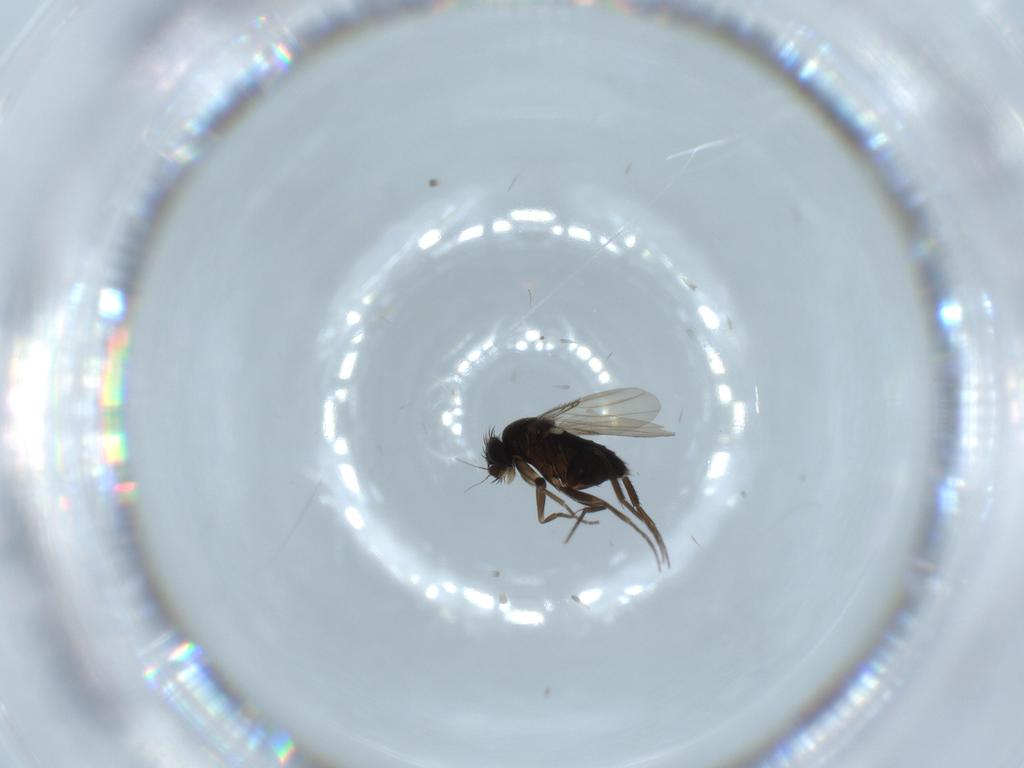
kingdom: Animalia
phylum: Arthropoda
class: Insecta
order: Diptera
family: Phoridae
